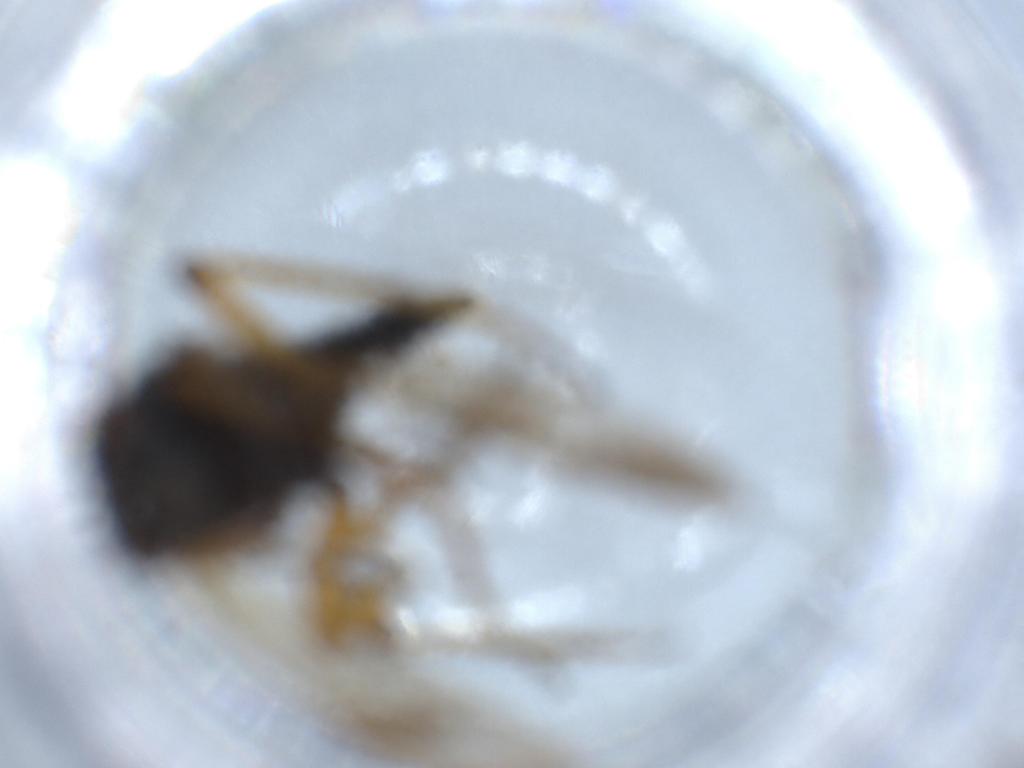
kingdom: Animalia
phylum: Arthropoda
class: Insecta
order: Diptera
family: Therevidae
